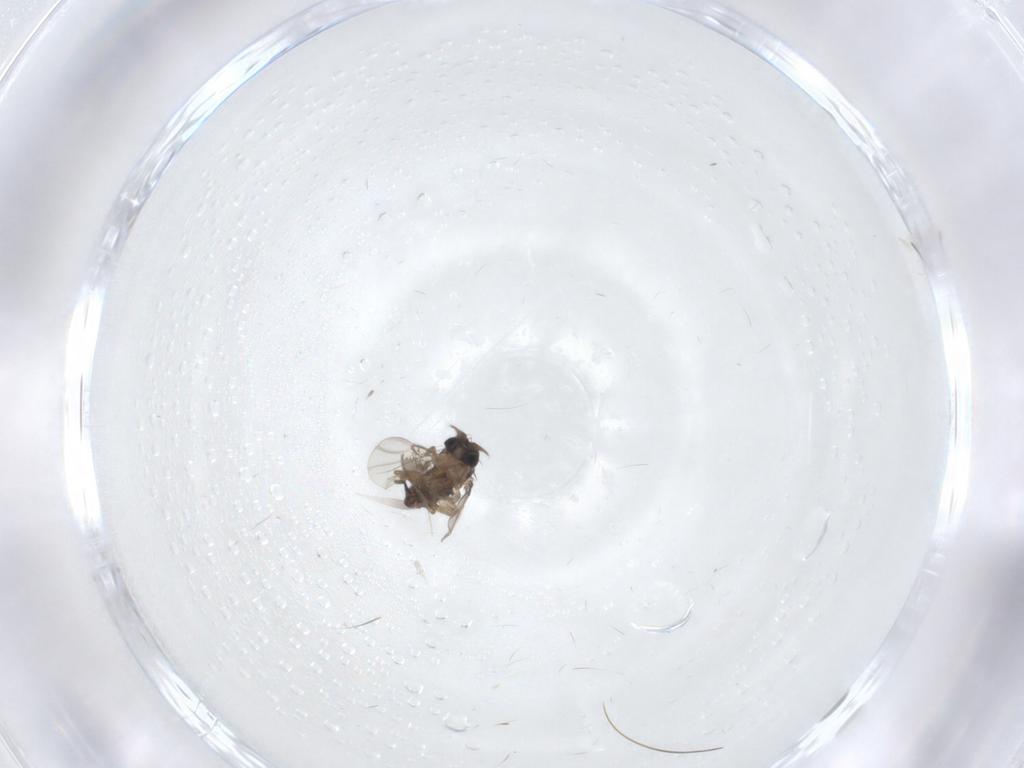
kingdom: Animalia
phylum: Arthropoda
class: Insecta
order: Diptera
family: Phoridae
